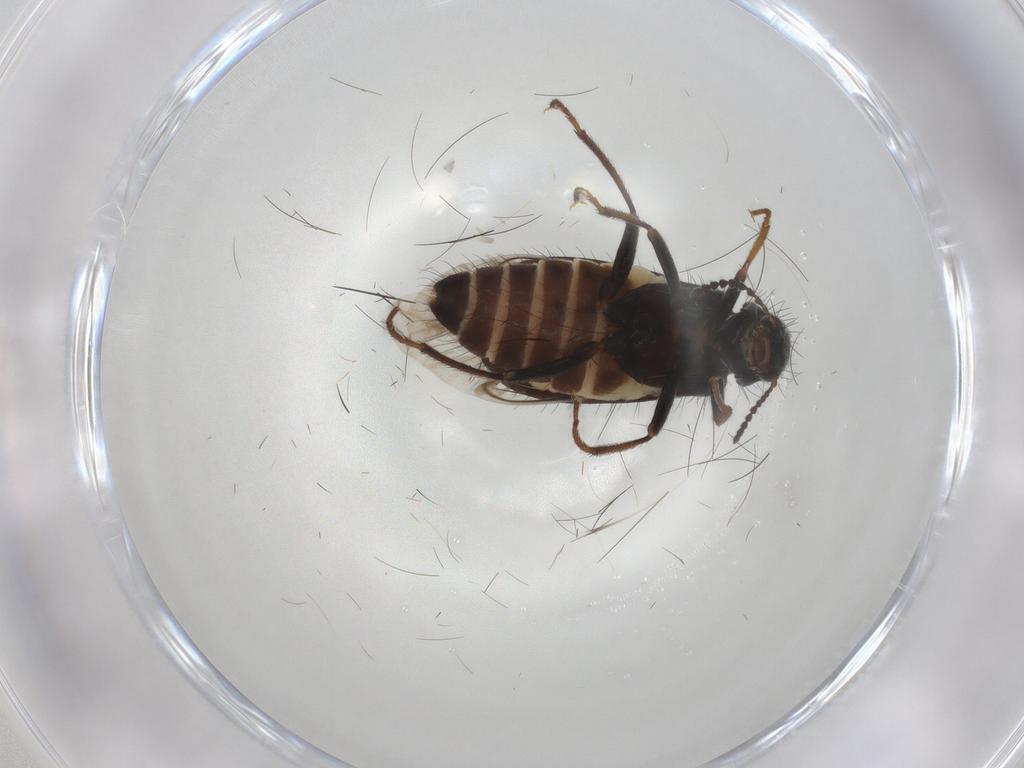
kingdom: Animalia
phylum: Arthropoda
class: Insecta
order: Coleoptera
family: Melyridae
